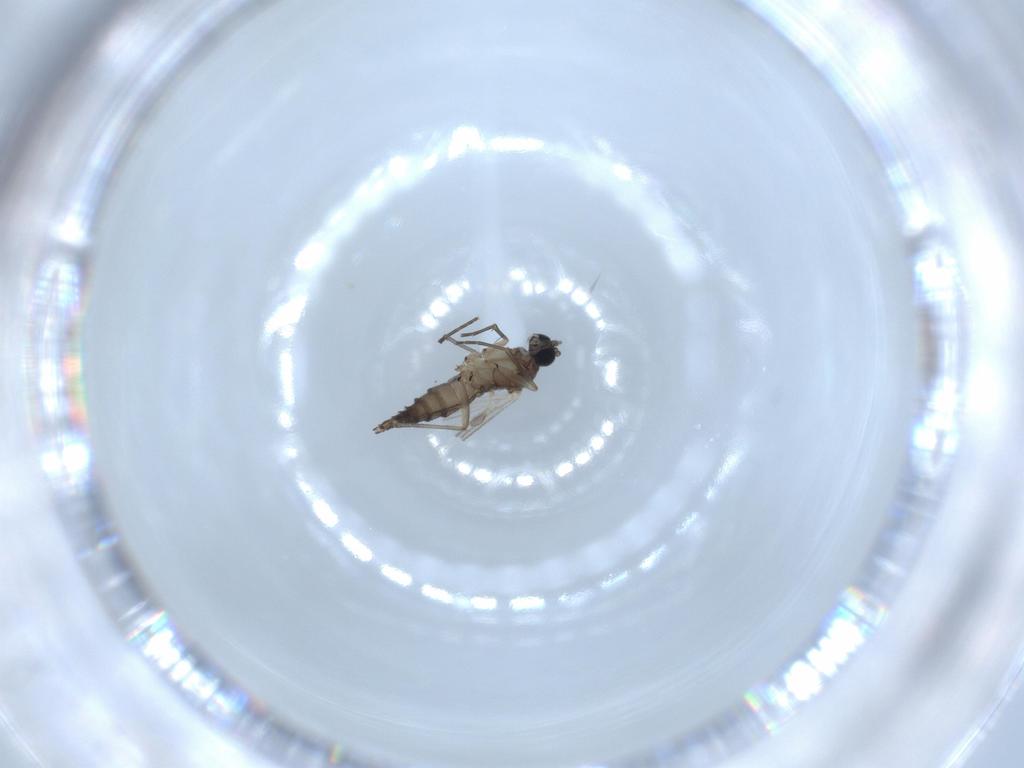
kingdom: Animalia
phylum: Arthropoda
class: Insecta
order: Diptera
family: Sciaridae
